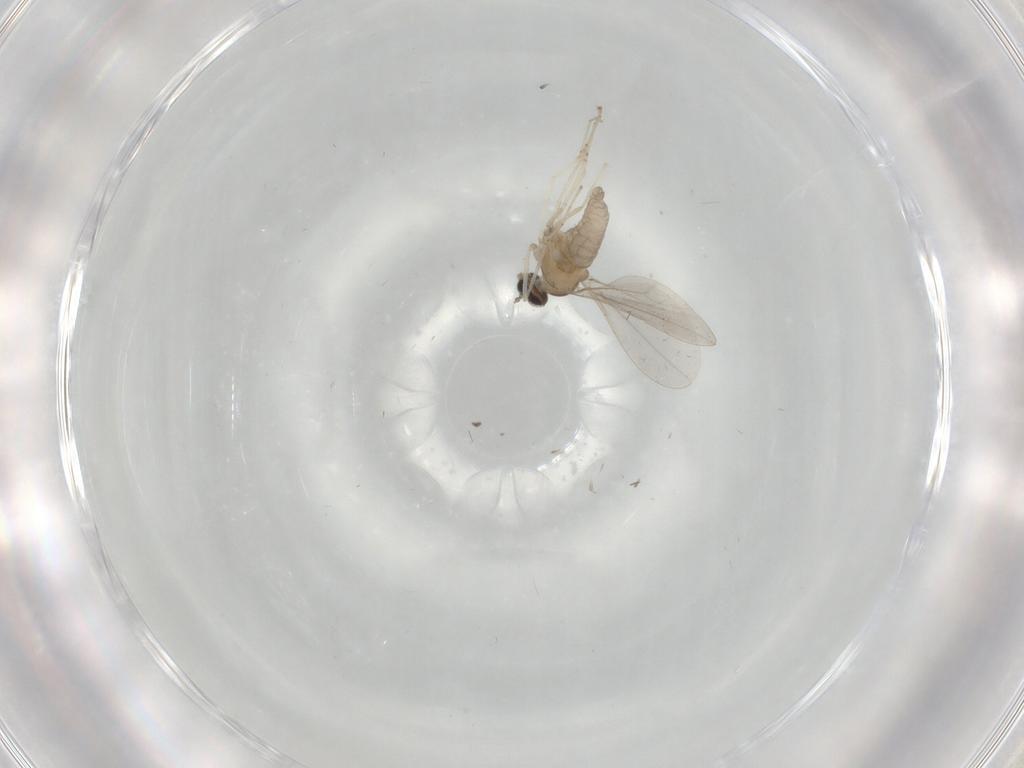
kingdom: Animalia
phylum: Arthropoda
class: Insecta
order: Diptera
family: Cecidomyiidae
